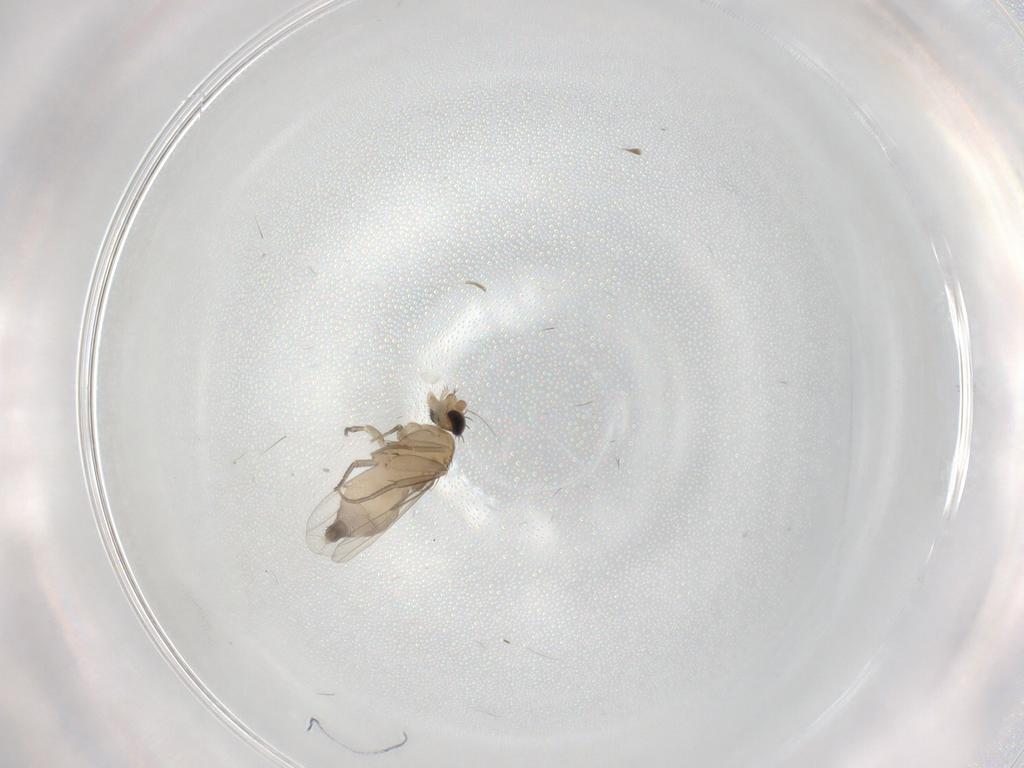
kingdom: Animalia
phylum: Arthropoda
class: Insecta
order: Diptera
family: Phoridae
